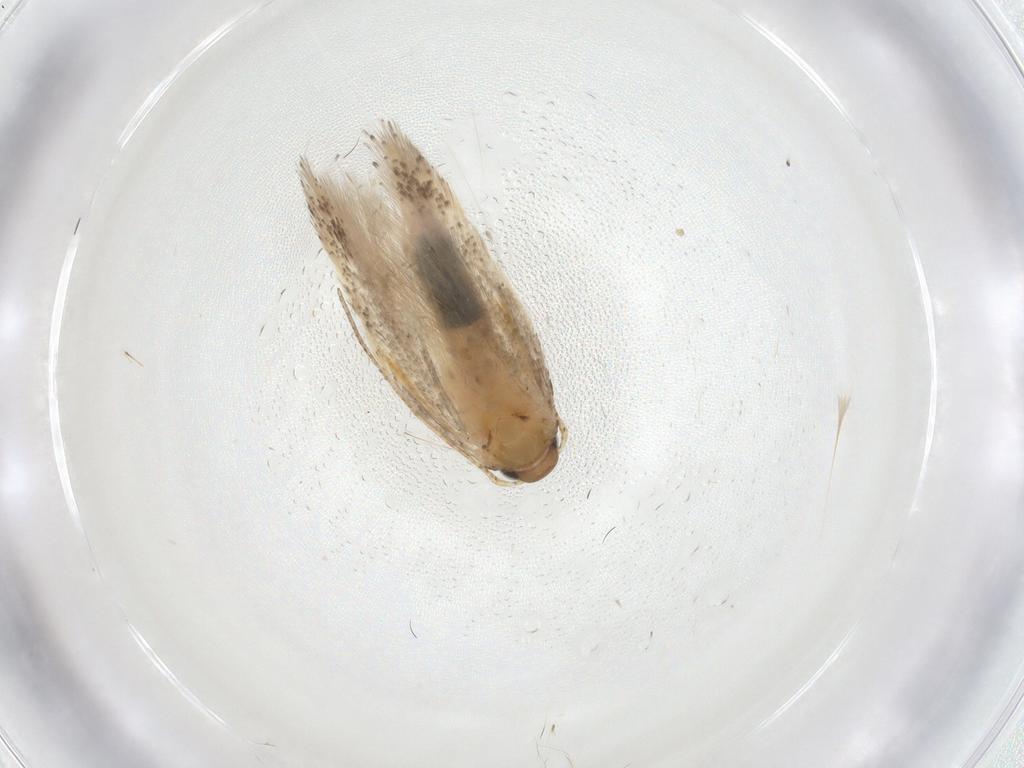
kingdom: Animalia
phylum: Arthropoda
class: Insecta
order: Lepidoptera
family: Gelechiidae
